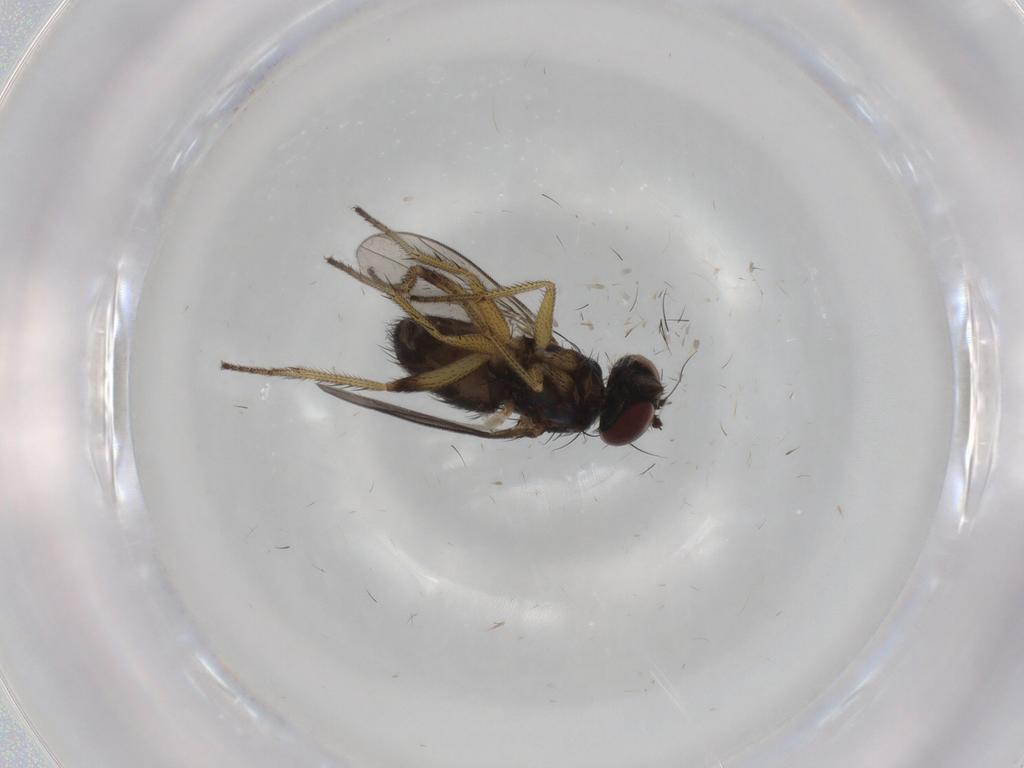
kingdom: Animalia
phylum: Arthropoda
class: Insecta
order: Diptera
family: Dolichopodidae
